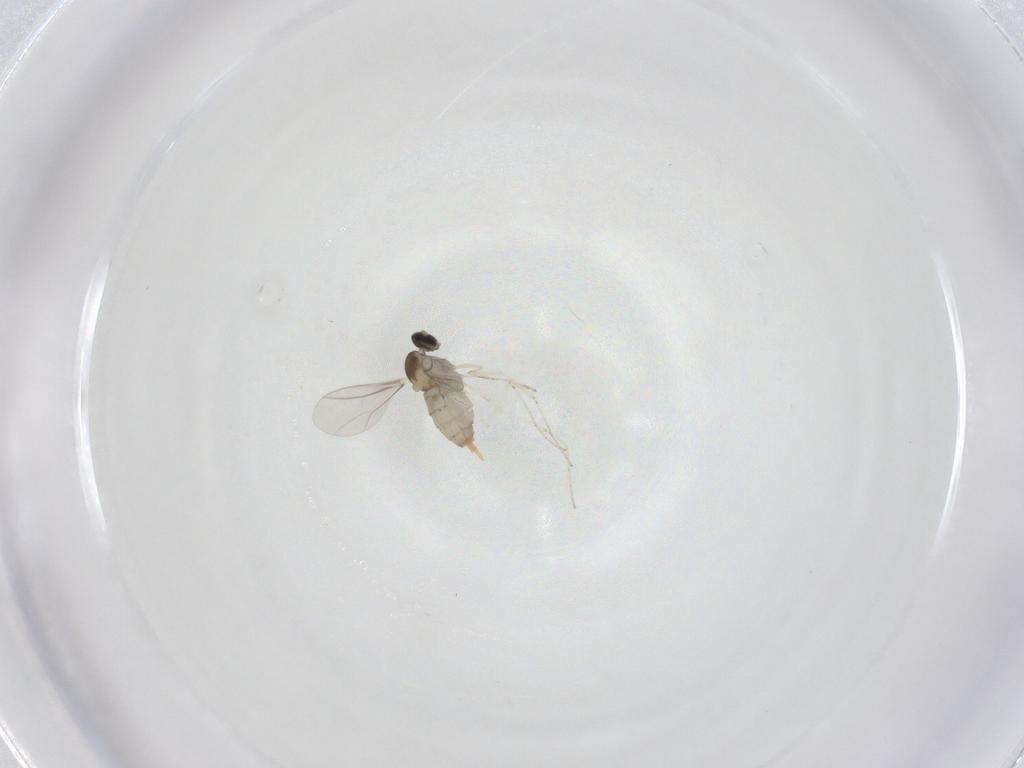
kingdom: Animalia
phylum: Arthropoda
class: Insecta
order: Diptera
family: Cecidomyiidae
